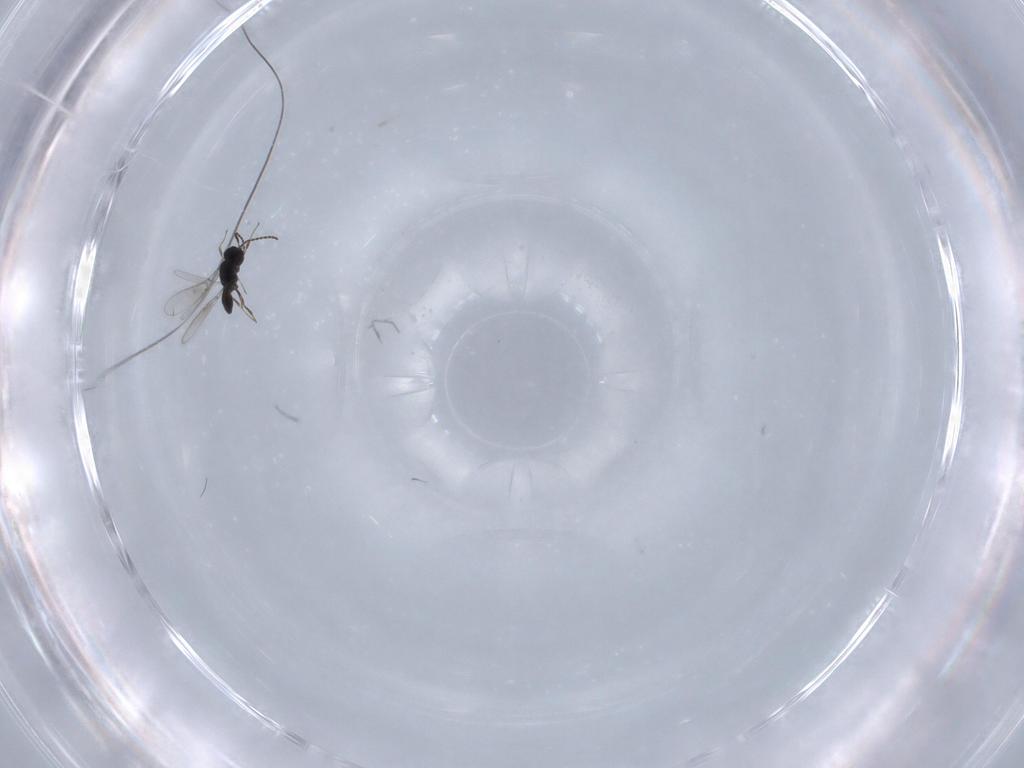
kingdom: Animalia
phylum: Arthropoda
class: Insecta
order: Hymenoptera
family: Scelionidae
